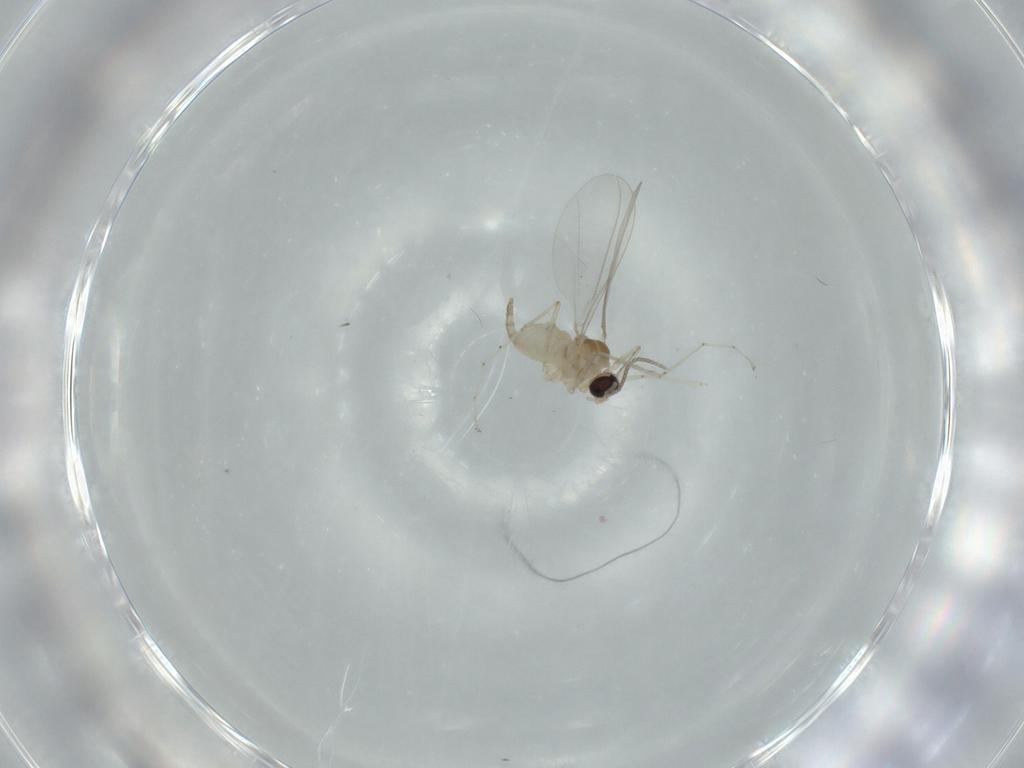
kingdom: Animalia
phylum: Arthropoda
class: Insecta
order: Diptera
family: Cecidomyiidae
